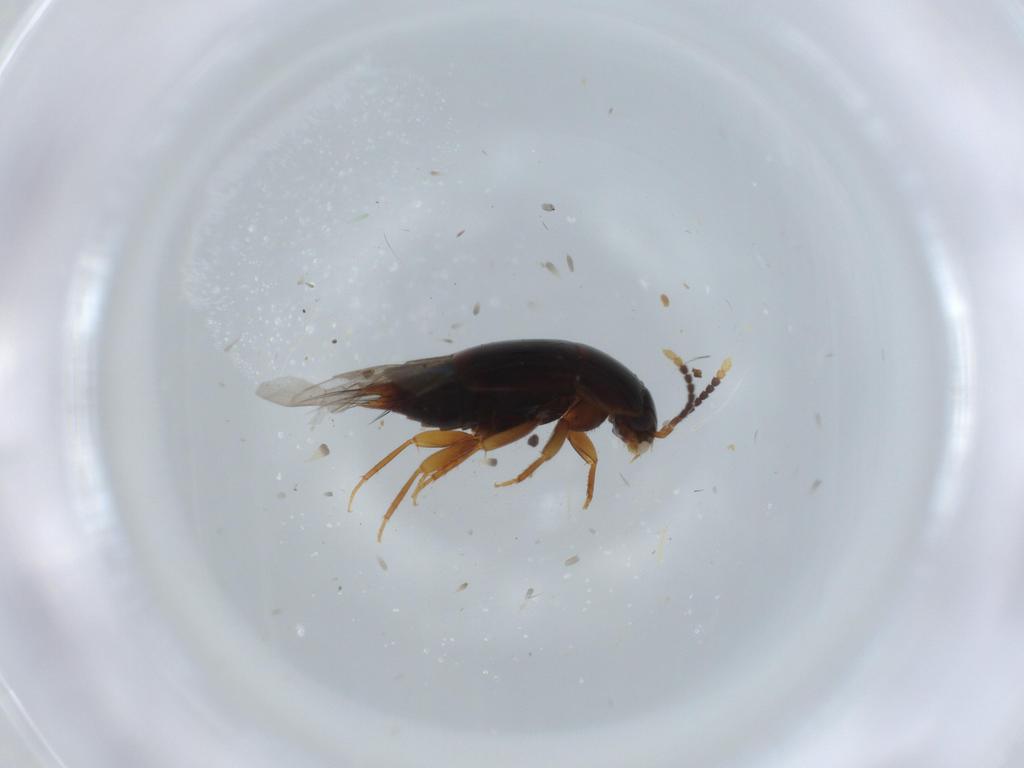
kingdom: Animalia
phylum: Arthropoda
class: Insecta
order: Coleoptera
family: Staphylinidae
